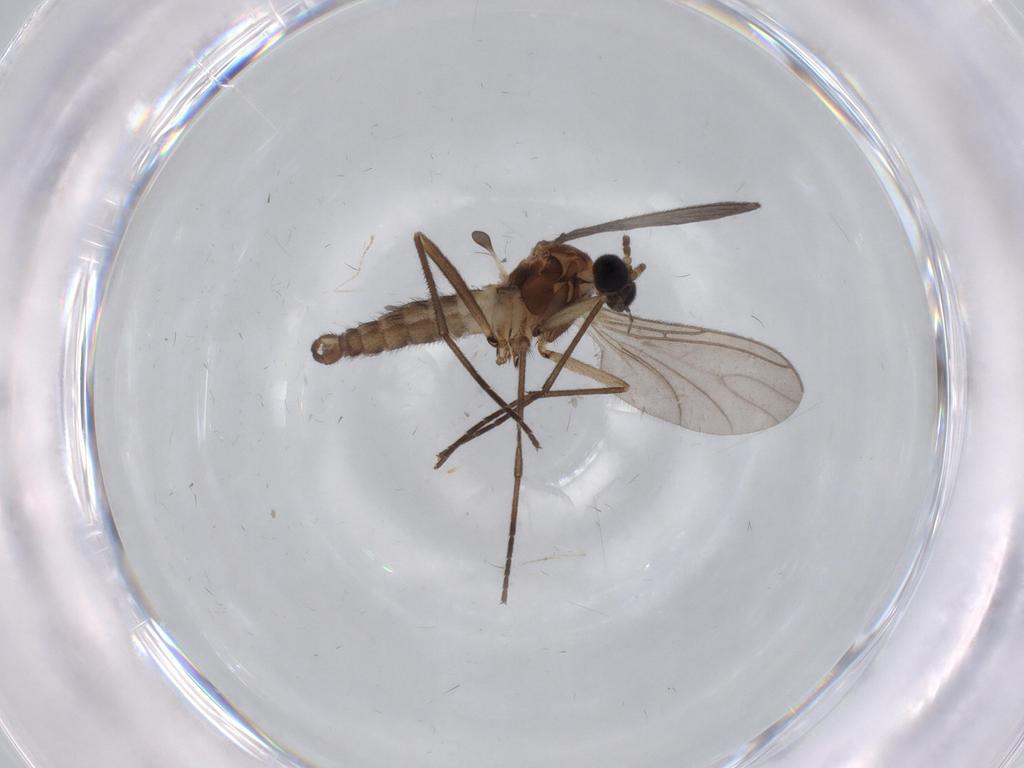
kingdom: Animalia
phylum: Arthropoda
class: Insecta
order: Diptera
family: Sciaridae
